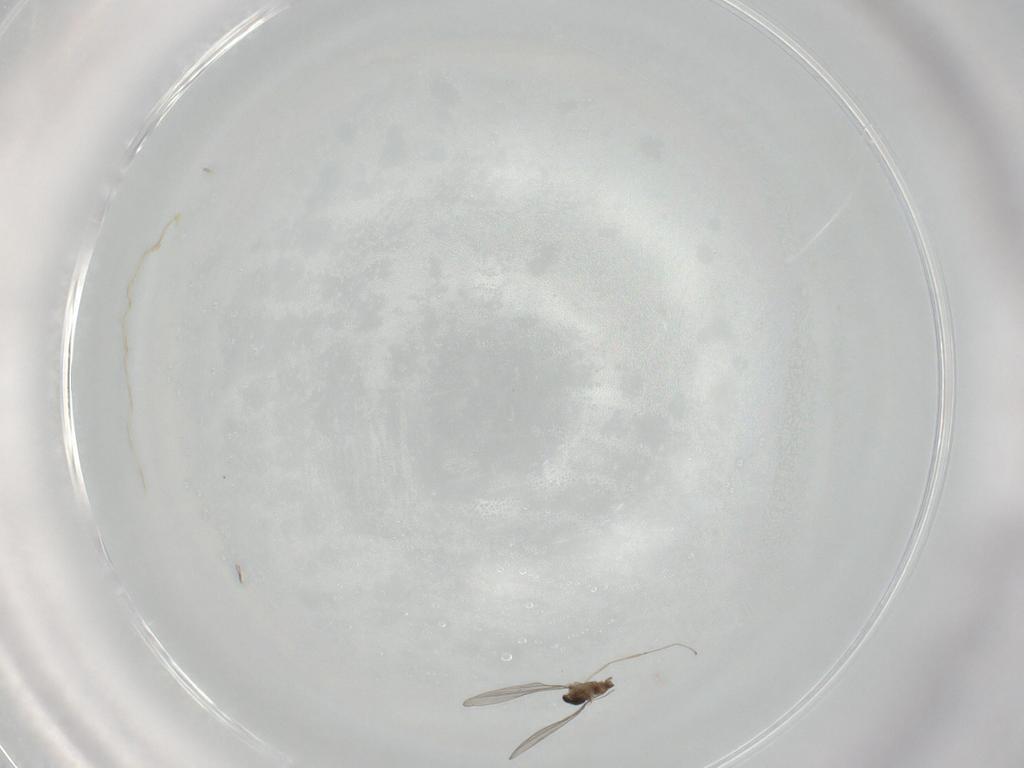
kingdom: Animalia
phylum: Arthropoda
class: Insecta
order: Diptera
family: Cecidomyiidae
